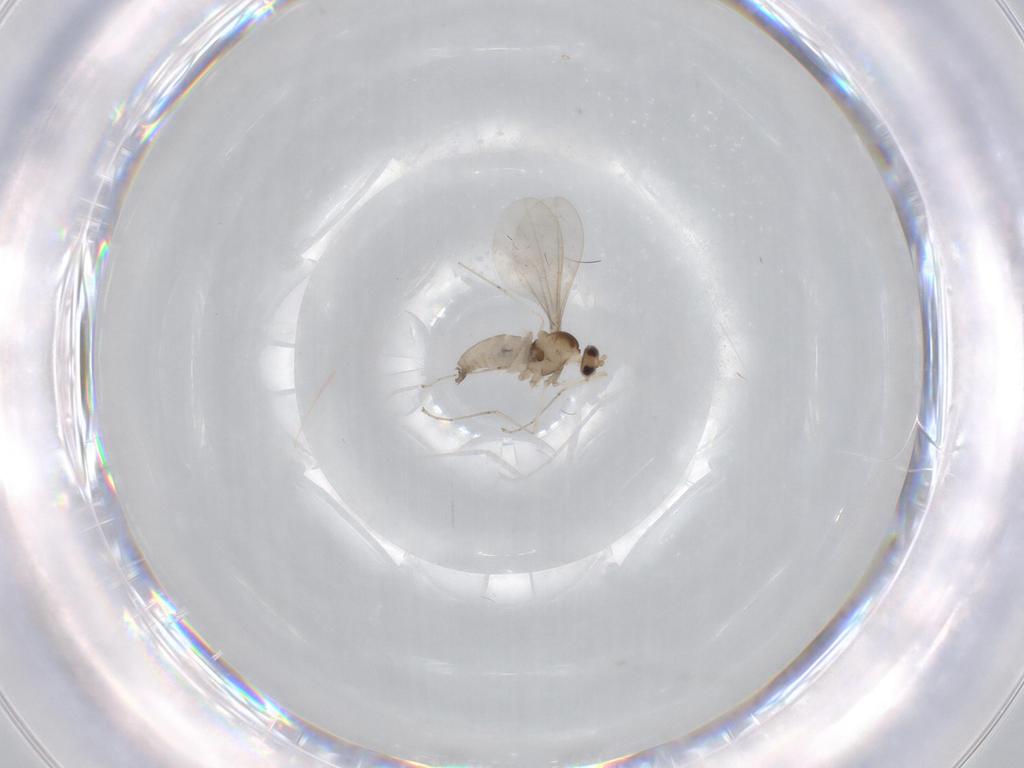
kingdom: Animalia
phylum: Arthropoda
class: Insecta
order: Diptera
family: Cecidomyiidae
